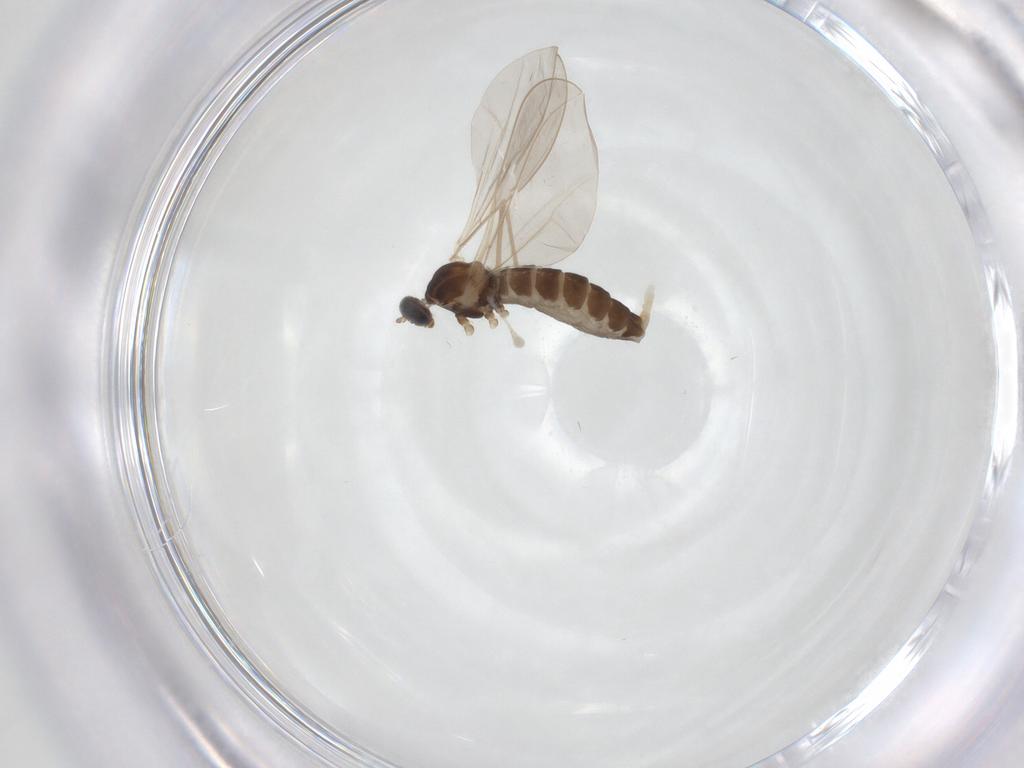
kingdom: Animalia
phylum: Arthropoda
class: Insecta
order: Diptera
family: Cecidomyiidae
